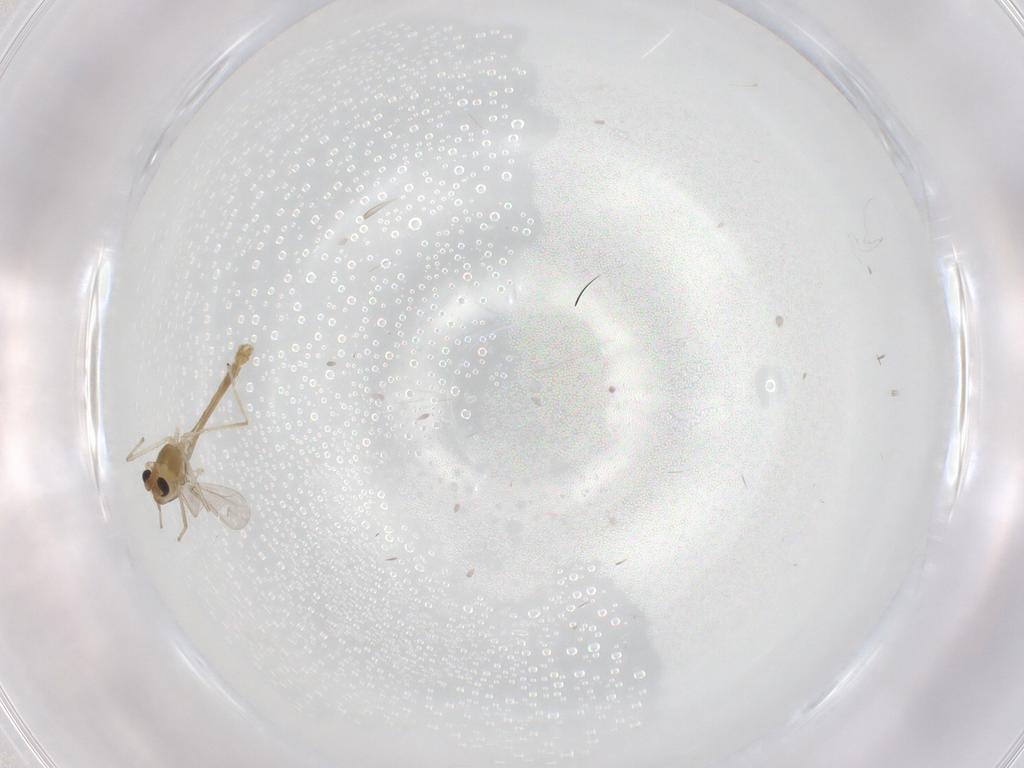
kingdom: Animalia
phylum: Arthropoda
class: Insecta
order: Diptera
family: Chironomidae
